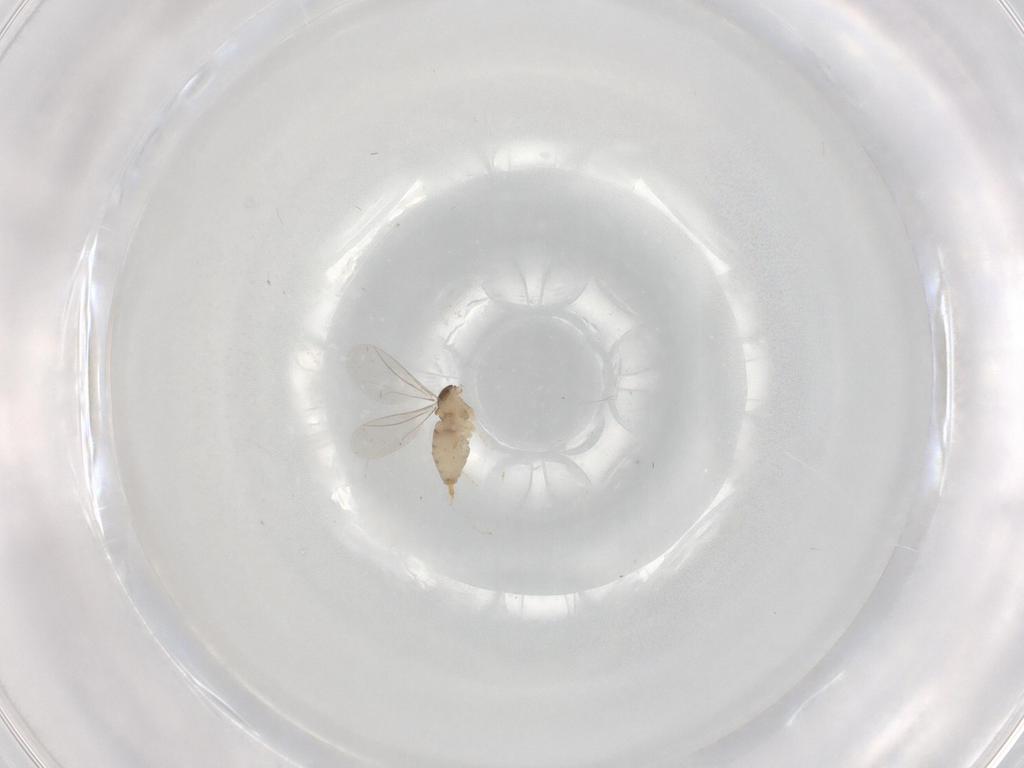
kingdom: Animalia
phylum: Arthropoda
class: Insecta
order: Diptera
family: Cecidomyiidae
